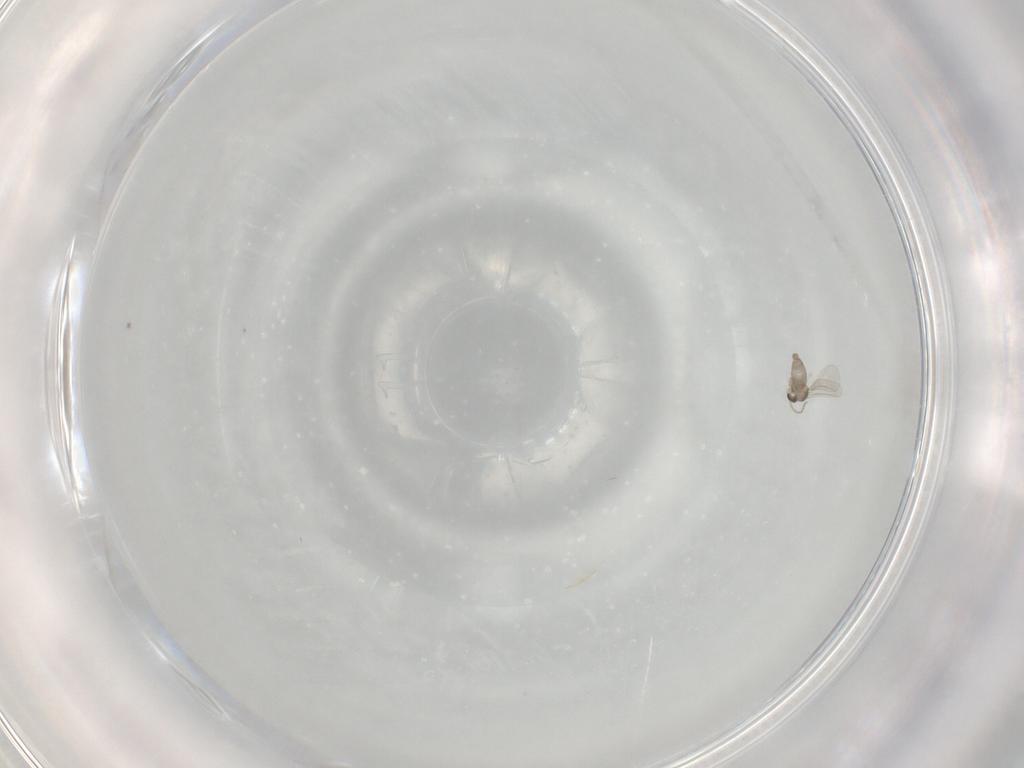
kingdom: Animalia
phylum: Arthropoda
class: Insecta
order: Diptera
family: Cecidomyiidae
